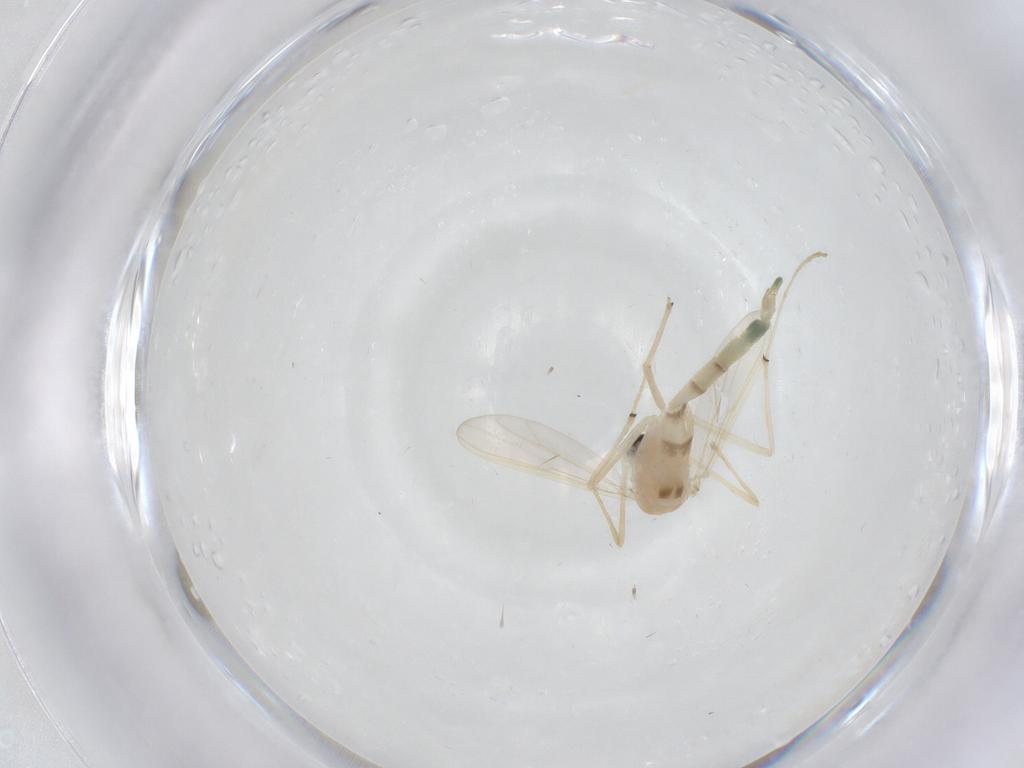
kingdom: Animalia
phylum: Arthropoda
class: Insecta
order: Diptera
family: Chironomidae
